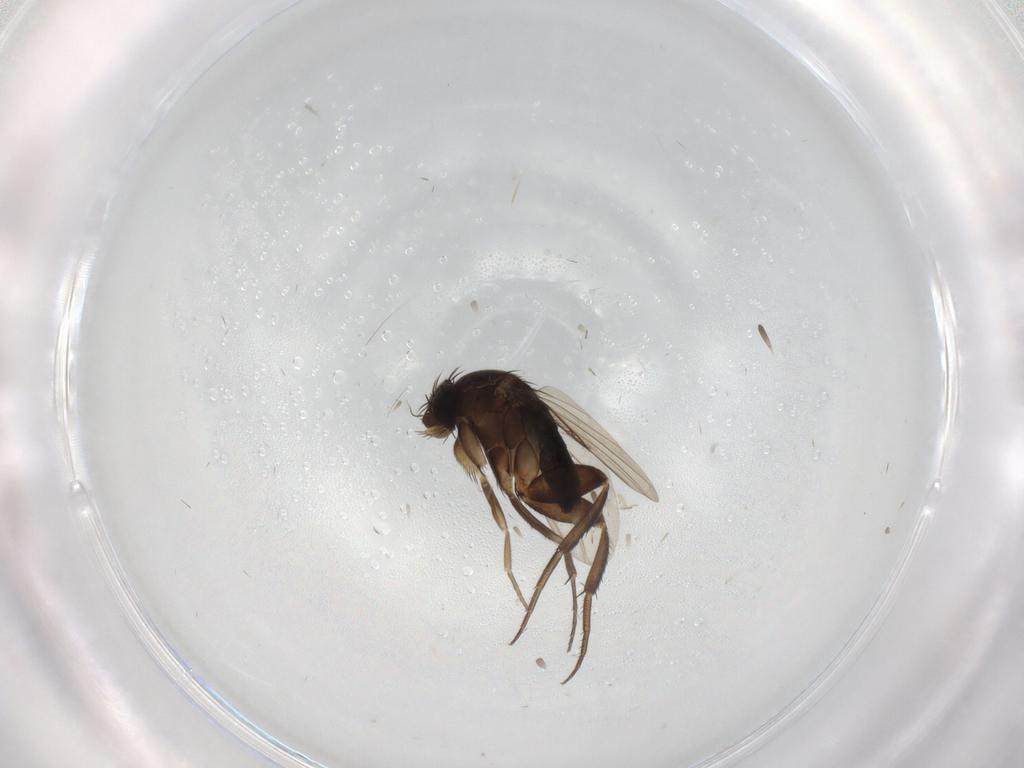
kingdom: Animalia
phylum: Arthropoda
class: Insecta
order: Diptera
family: Phoridae
